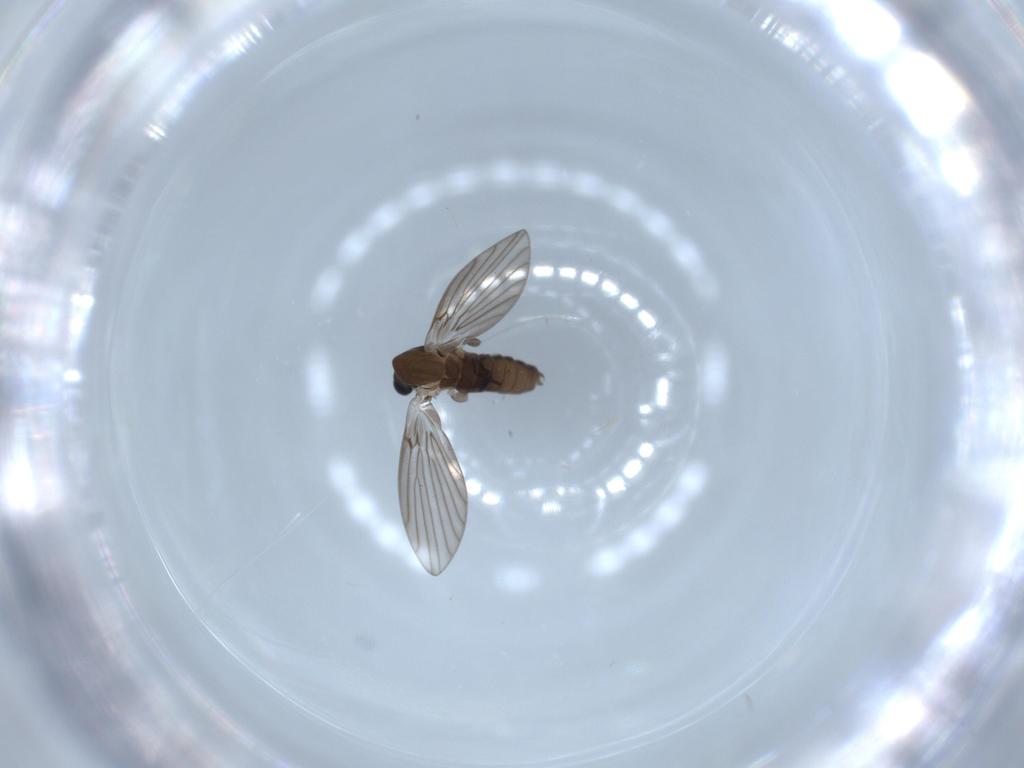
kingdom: Animalia
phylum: Arthropoda
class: Insecta
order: Diptera
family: Psychodidae
